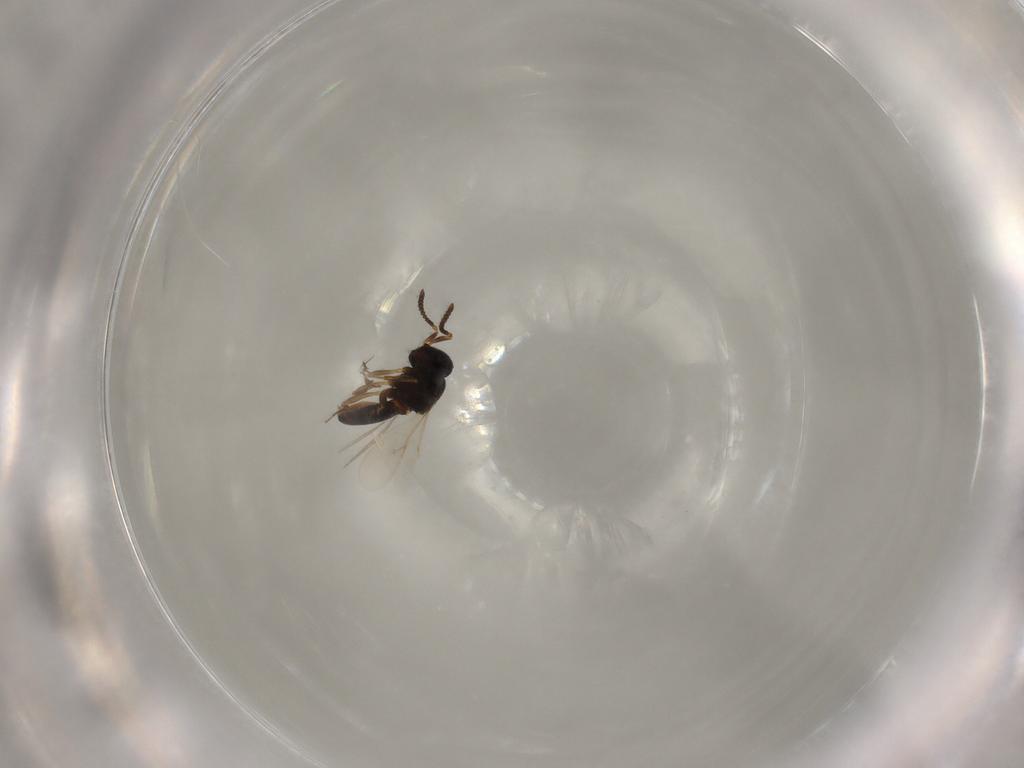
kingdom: Animalia
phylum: Arthropoda
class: Insecta
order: Hymenoptera
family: Scelionidae
